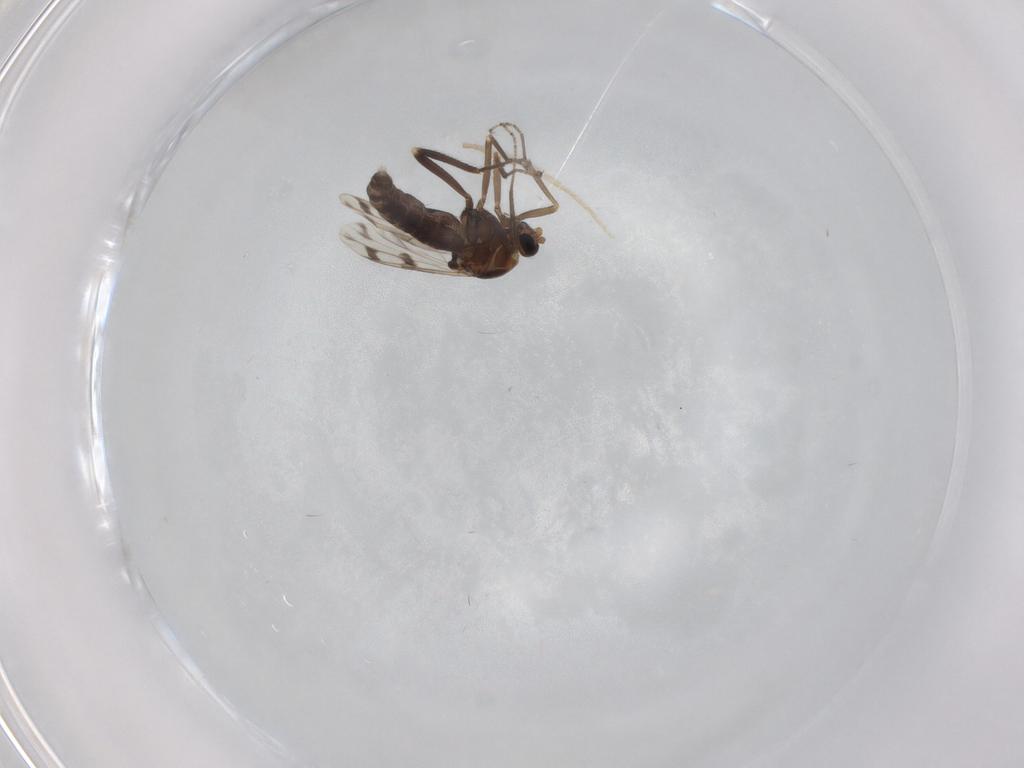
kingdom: Animalia
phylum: Arthropoda
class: Insecta
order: Diptera
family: Ceratopogonidae
